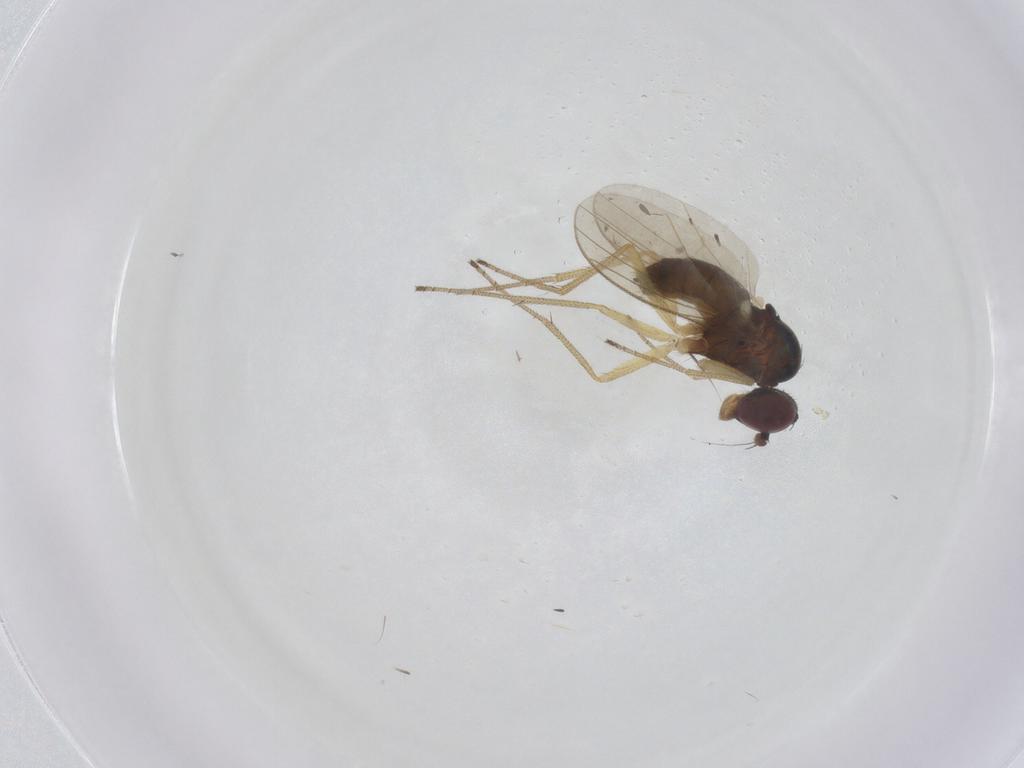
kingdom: Animalia
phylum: Arthropoda
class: Insecta
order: Diptera
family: Dolichopodidae
